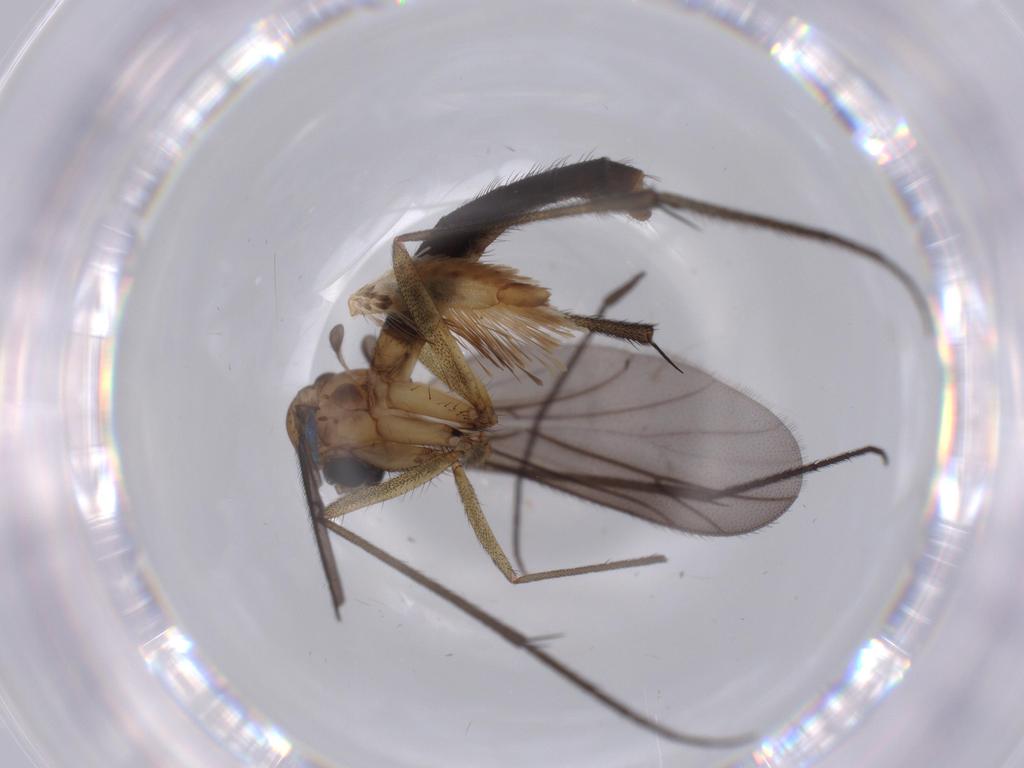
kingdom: Animalia
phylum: Arthropoda
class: Insecta
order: Diptera
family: Ditomyiidae
